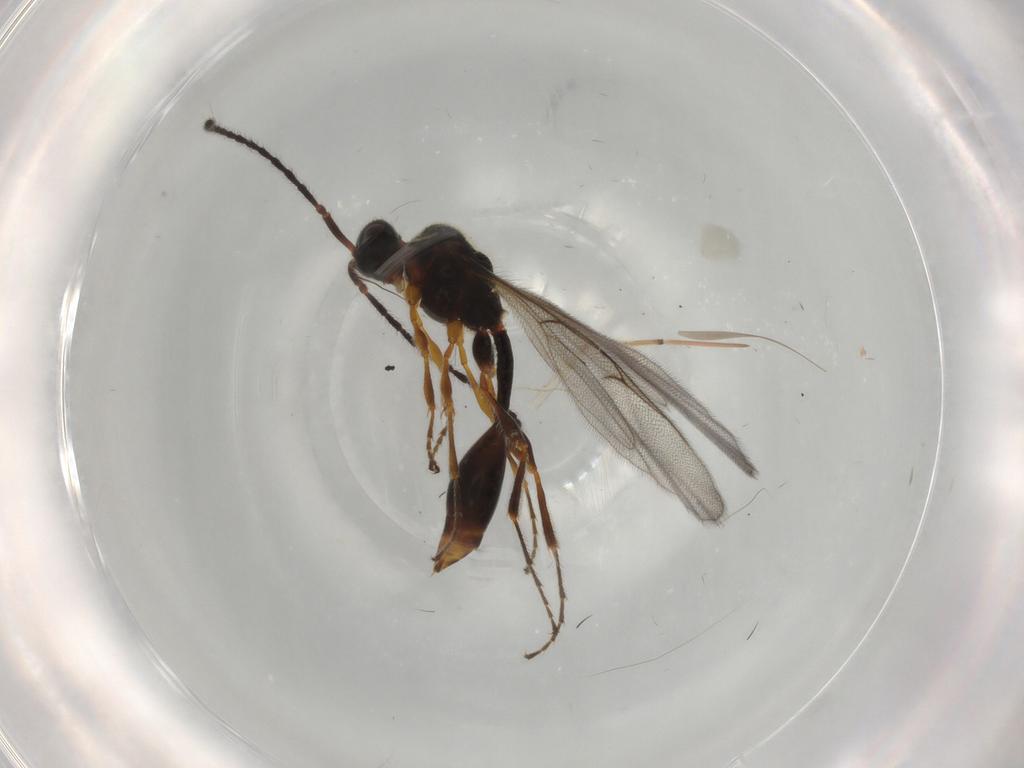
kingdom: Animalia
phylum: Arthropoda
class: Insecta
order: Hymenoptera
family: Diapriidae
